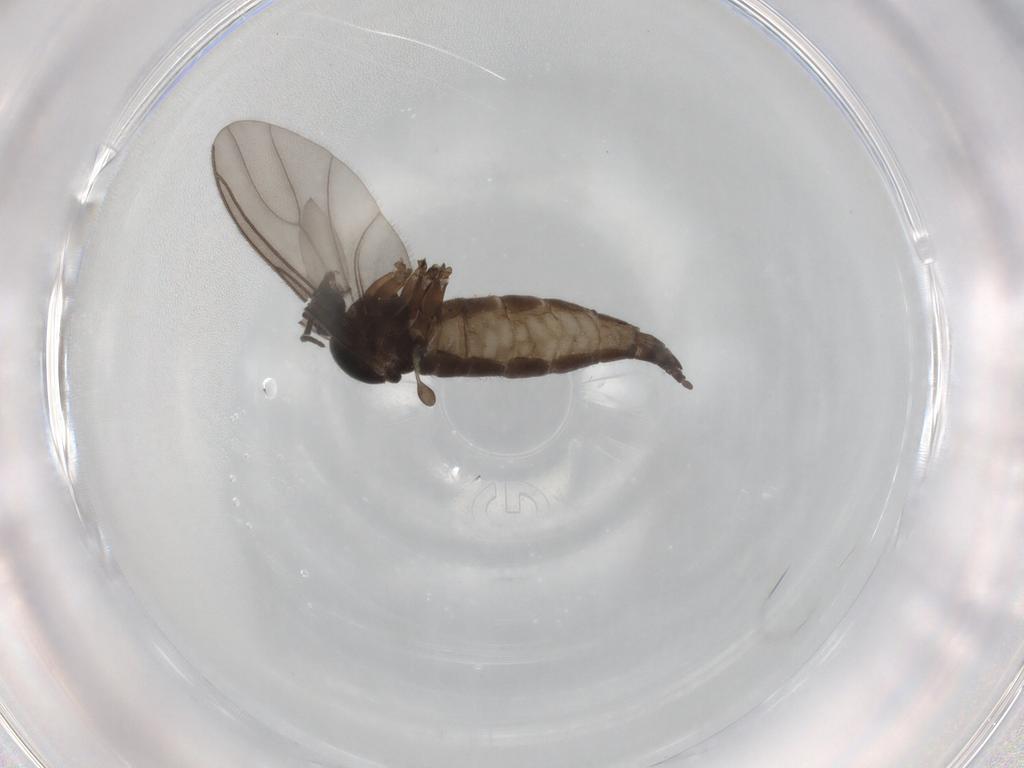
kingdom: Animalia
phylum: Arthropoda
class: Insecta
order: Diptera
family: Sciaridae
